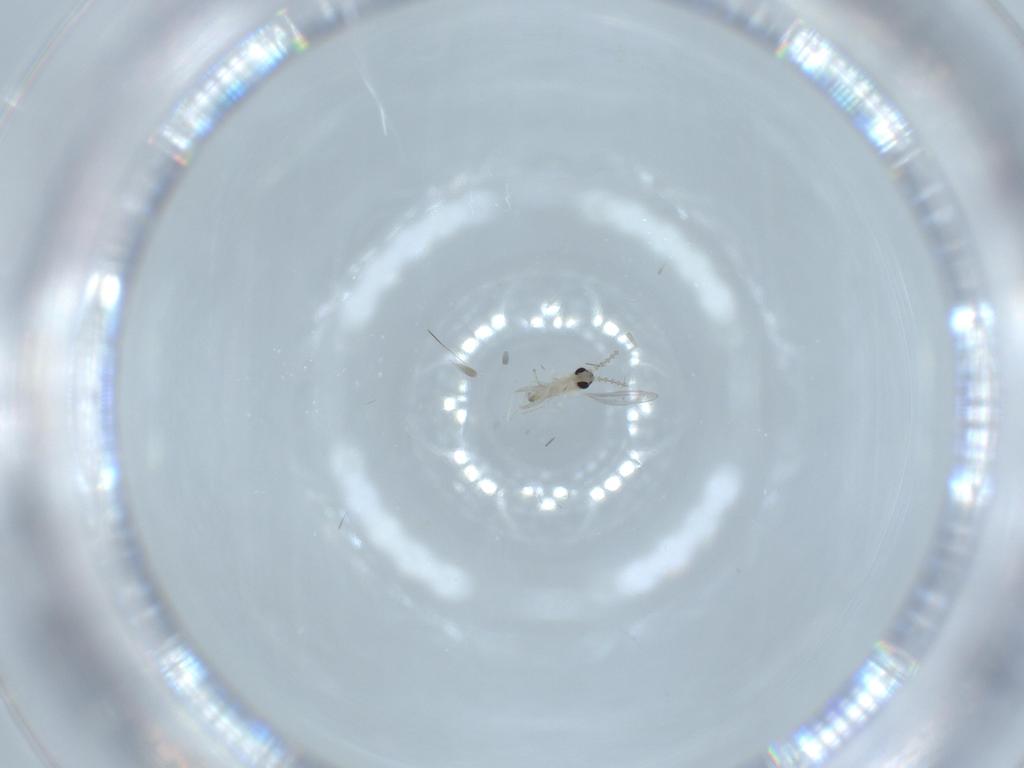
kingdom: Animalia
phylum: Arthropoda
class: Insecta
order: Diptera
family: Cecidomyiidae
